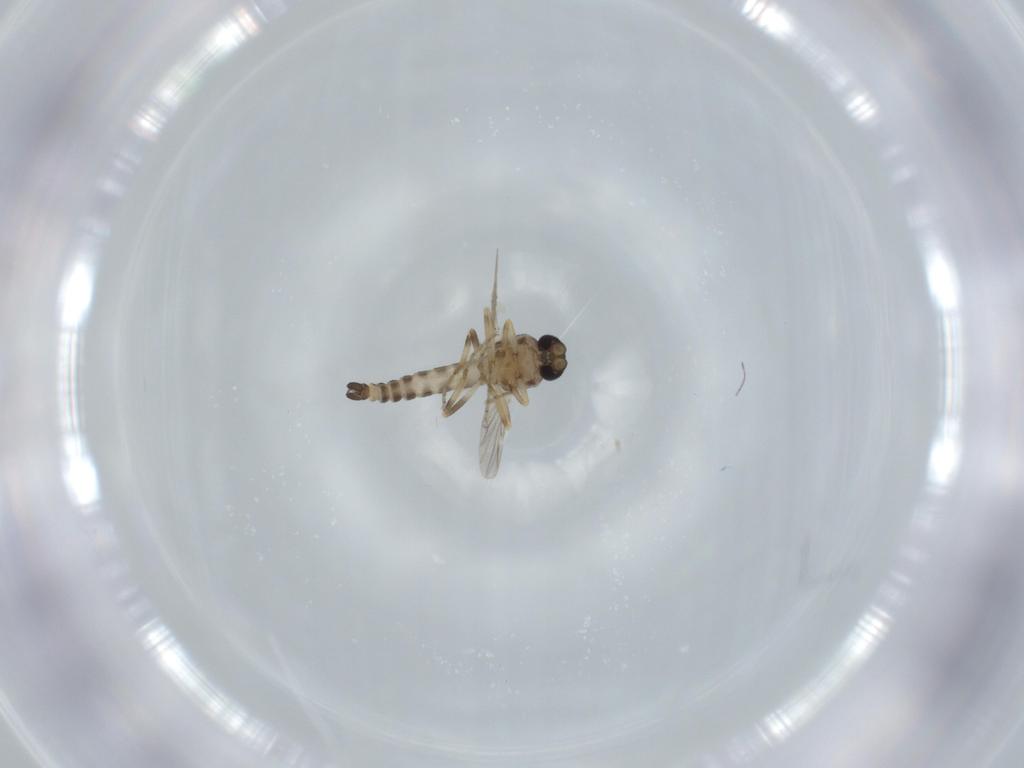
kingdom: Animalia
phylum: Arthropoda
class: Insecta
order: Diptera
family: Ceratopogonidae
